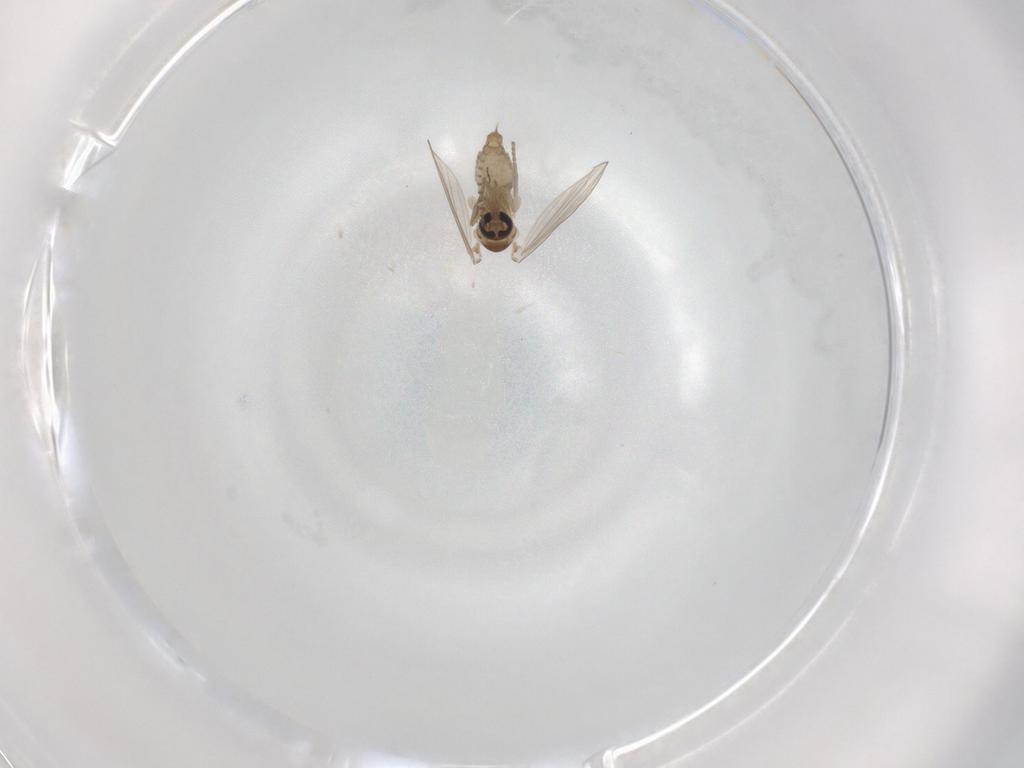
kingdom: Animalia
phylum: Arthropoda
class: Insecta
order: Diptera
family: Psychodidae
